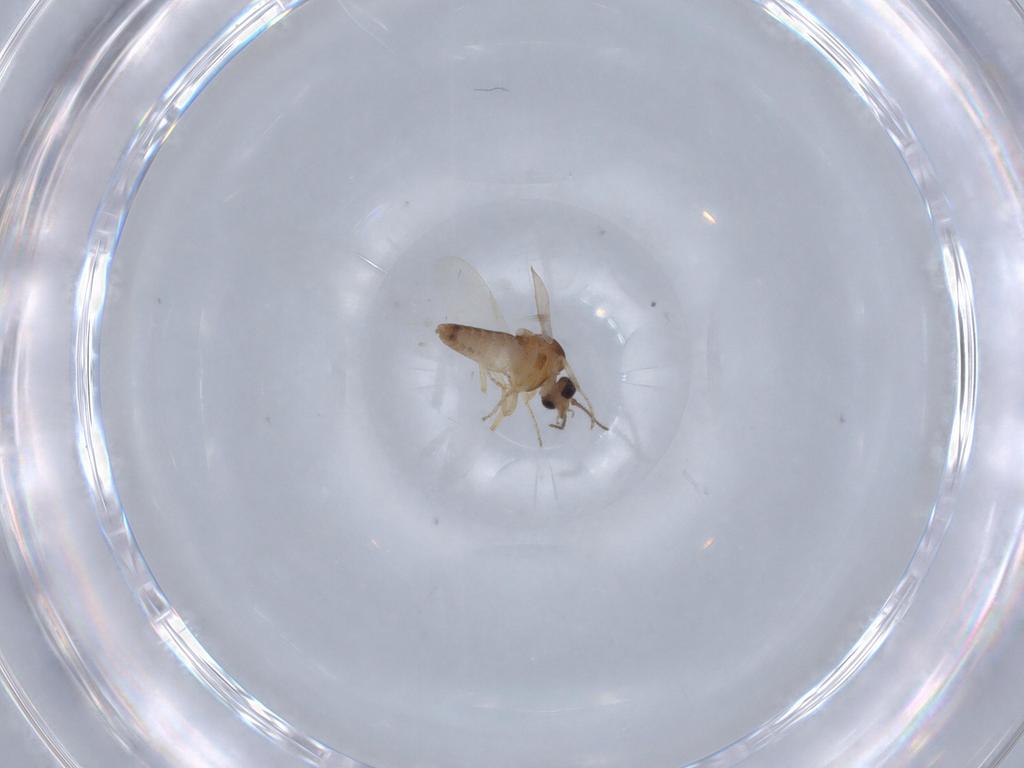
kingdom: Animalia
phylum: Arthropoda
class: Insecta
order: Diptera
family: Ceratopogonidae
